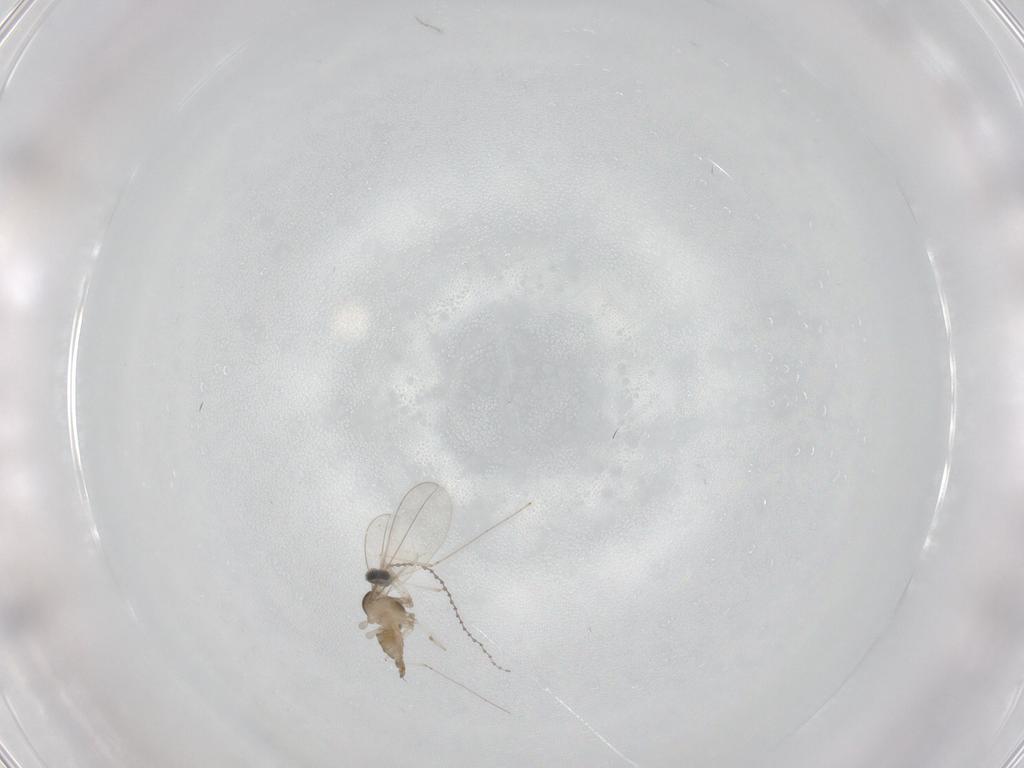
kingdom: Animalia
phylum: Arthropoda
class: Insecta
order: Diptera
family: Cecidomyiidae
